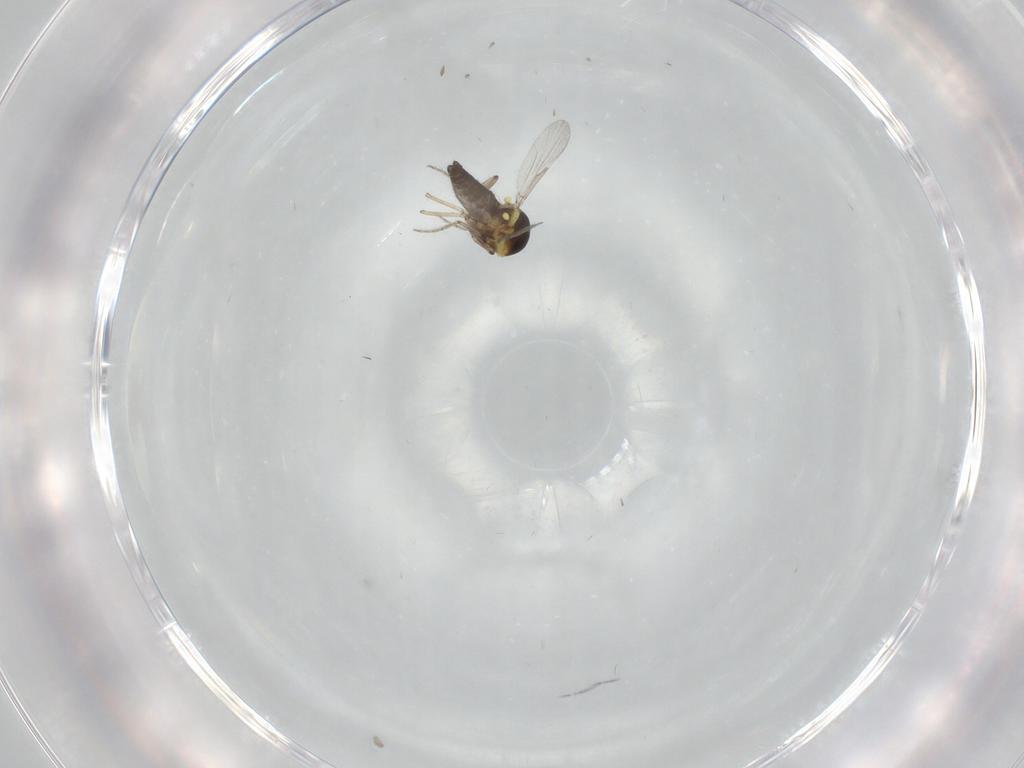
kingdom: Animalia
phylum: Arthropoda
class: Insecta
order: Diptera
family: Ceratopogonidae
